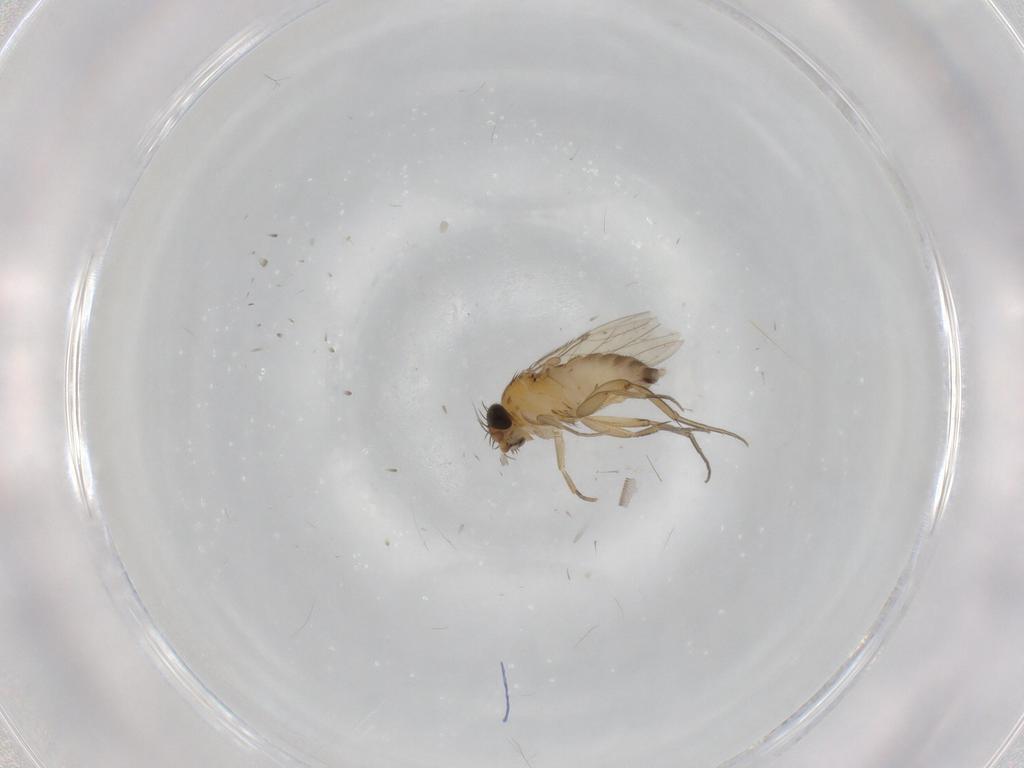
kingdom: Animalia
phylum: Arthropoda
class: Insecta
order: Diptera
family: Phoridae
